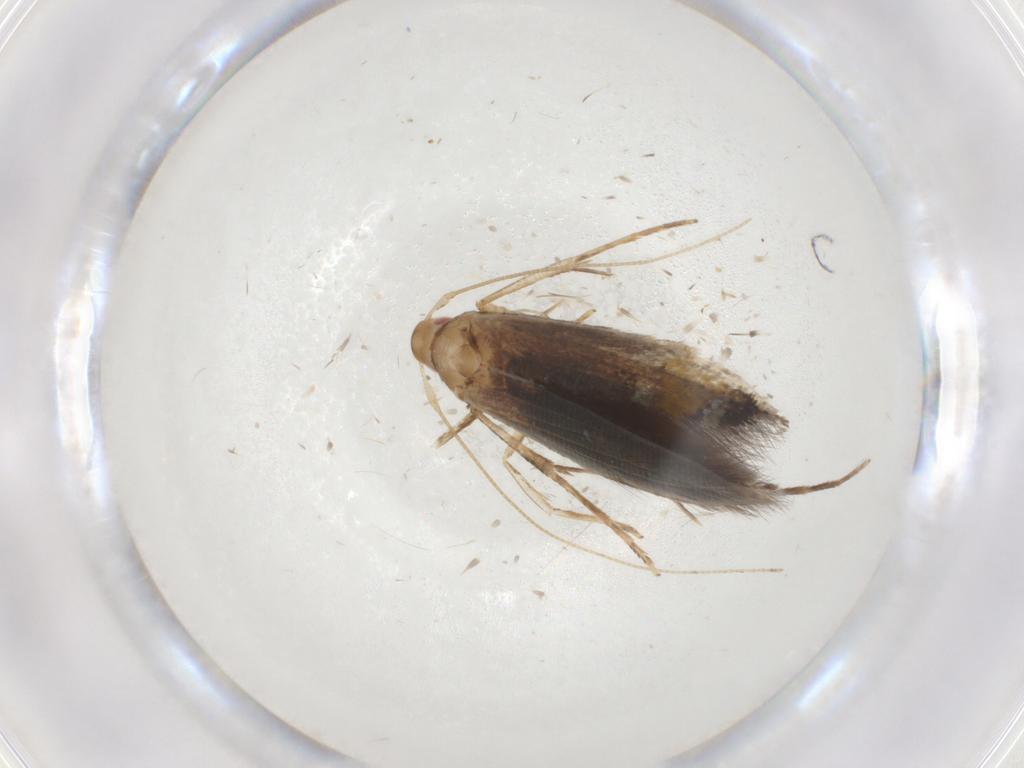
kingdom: Animalia
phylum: Arthropoda
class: Insecta
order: Lepidoptera
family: Cosmopterigidae
